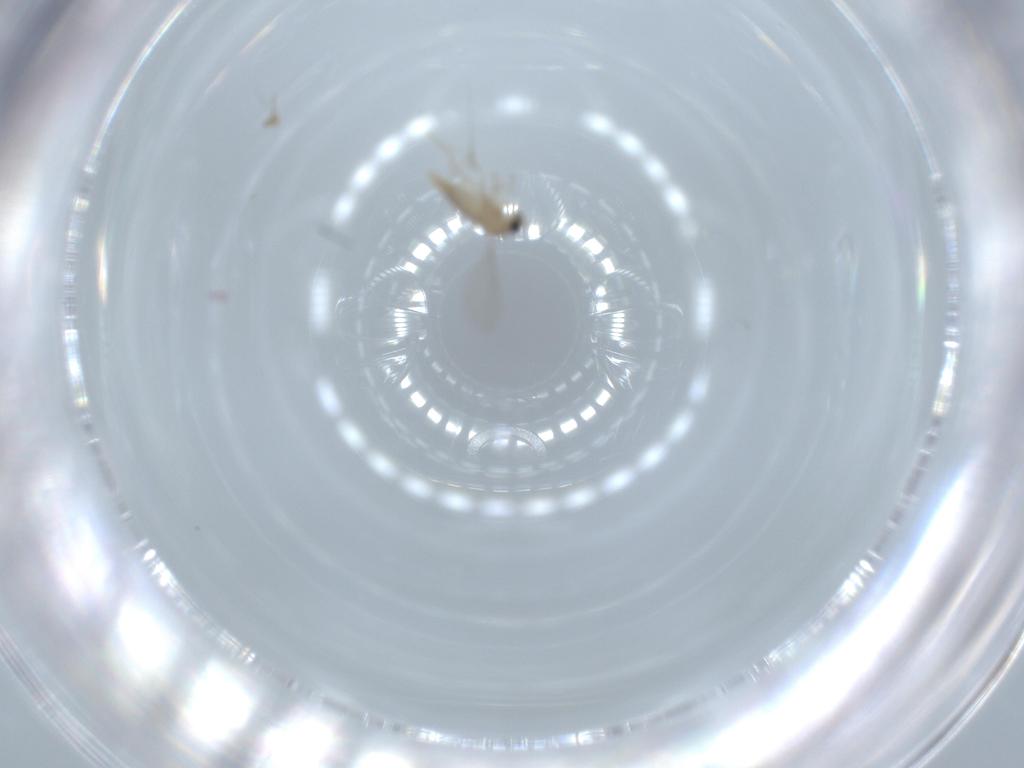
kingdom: Animalia
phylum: Arthropoda
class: Insecta
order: Diptera
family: Cecidomyiidae
